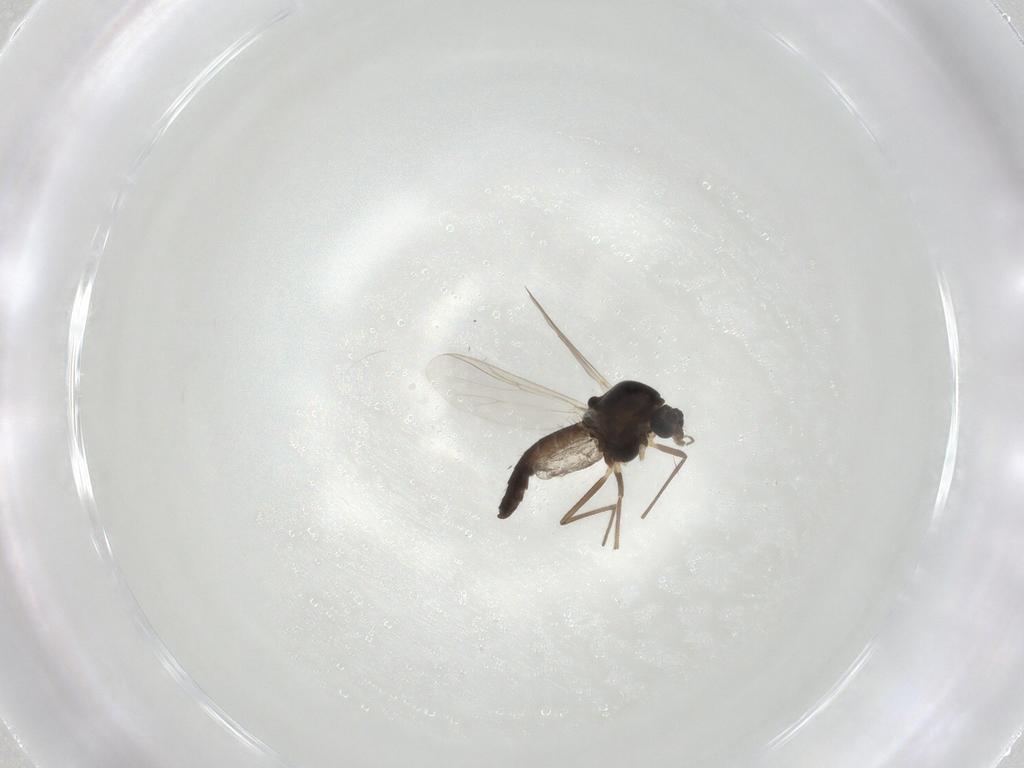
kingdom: Animalia
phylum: Arthropoda
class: Insecta
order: Diptera
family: Chironomidae
